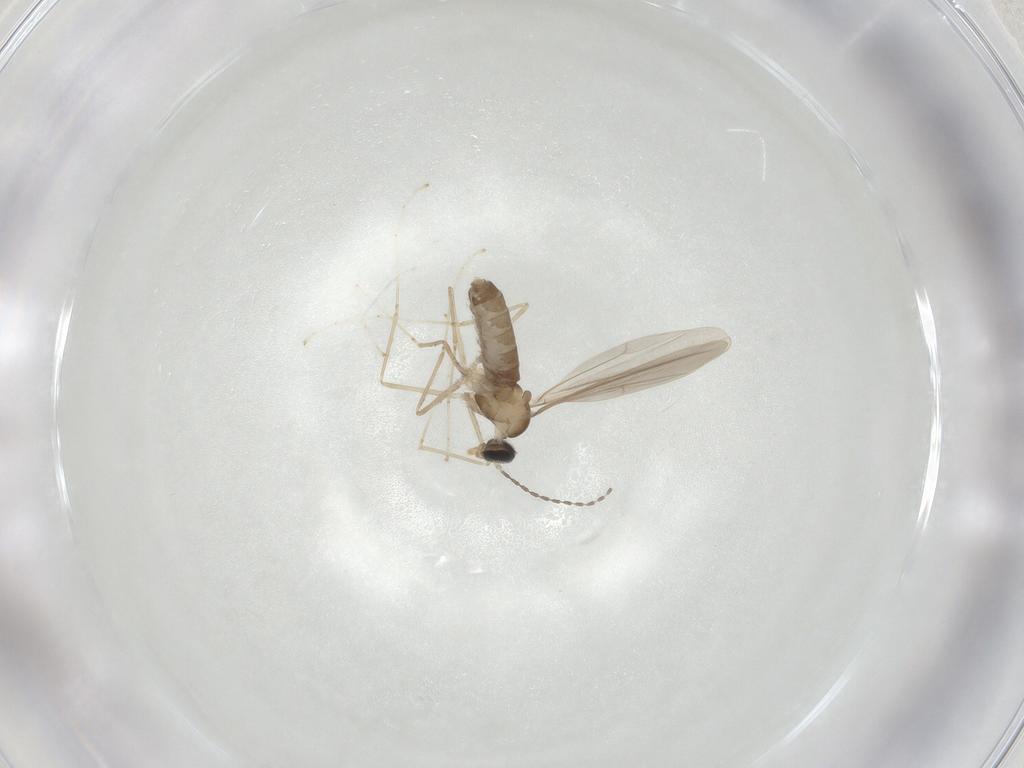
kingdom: Animalia
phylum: Arthropoda
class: Insecta
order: Diptera
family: Cecidomyiidae
